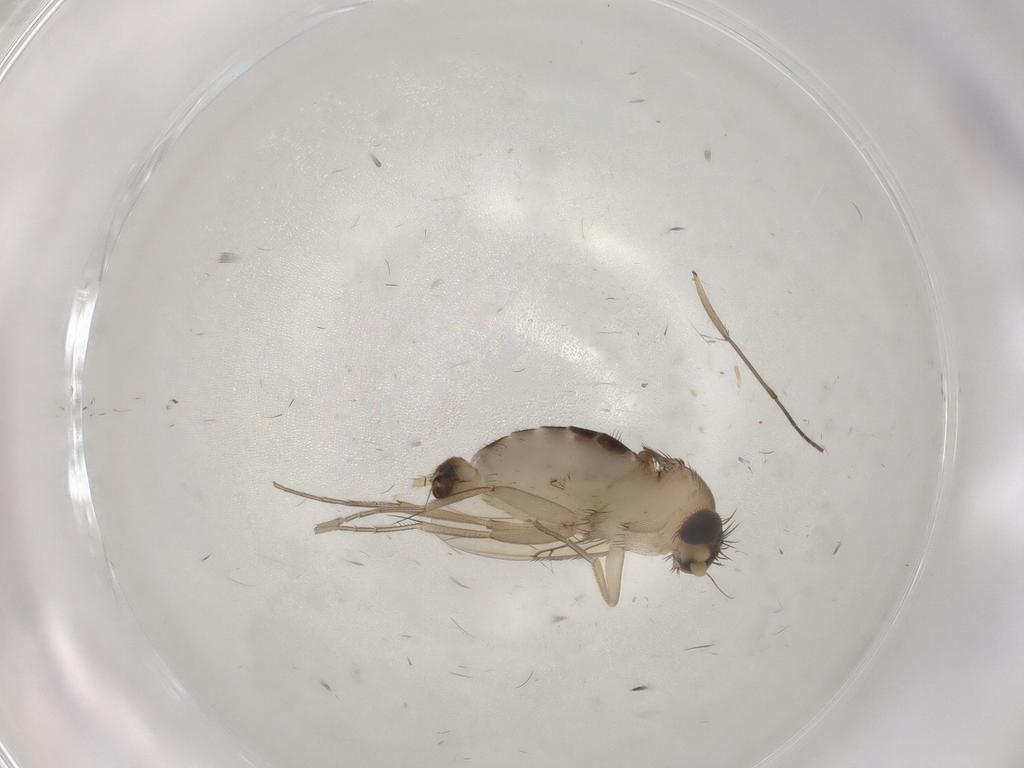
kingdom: Animalia
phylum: Arthropoda
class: Insecta
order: Diptera
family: Phoridae
